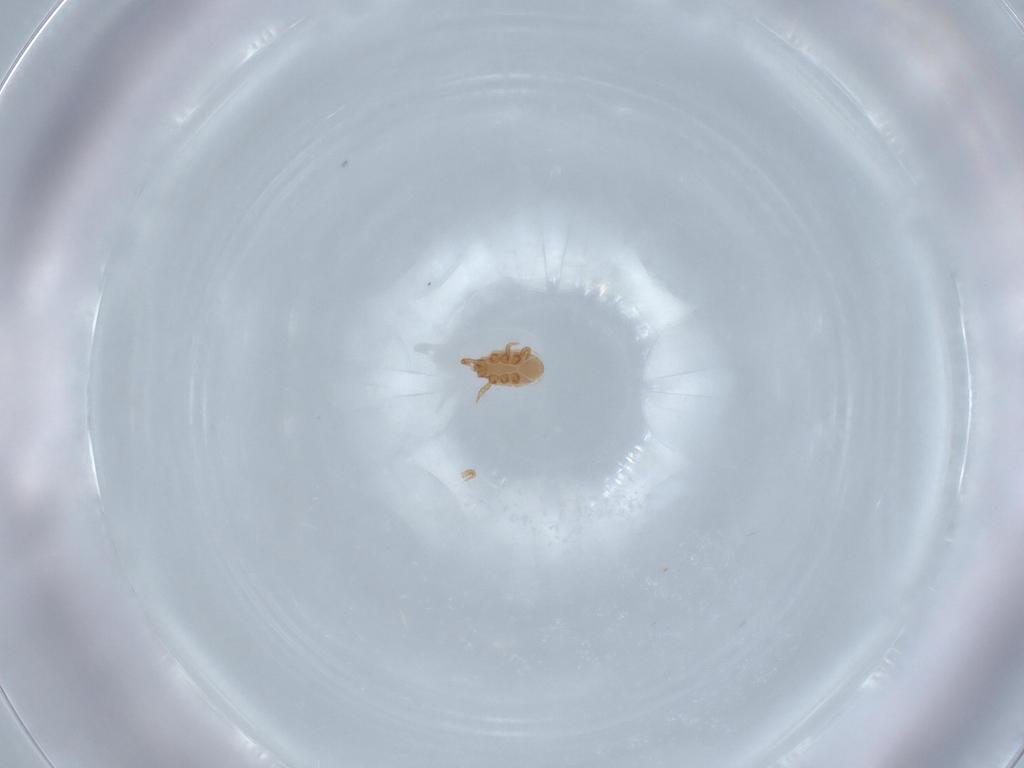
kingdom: Animalia
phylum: Arthropoda
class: Arachnida
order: Mesostigmata
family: Dinychidae
